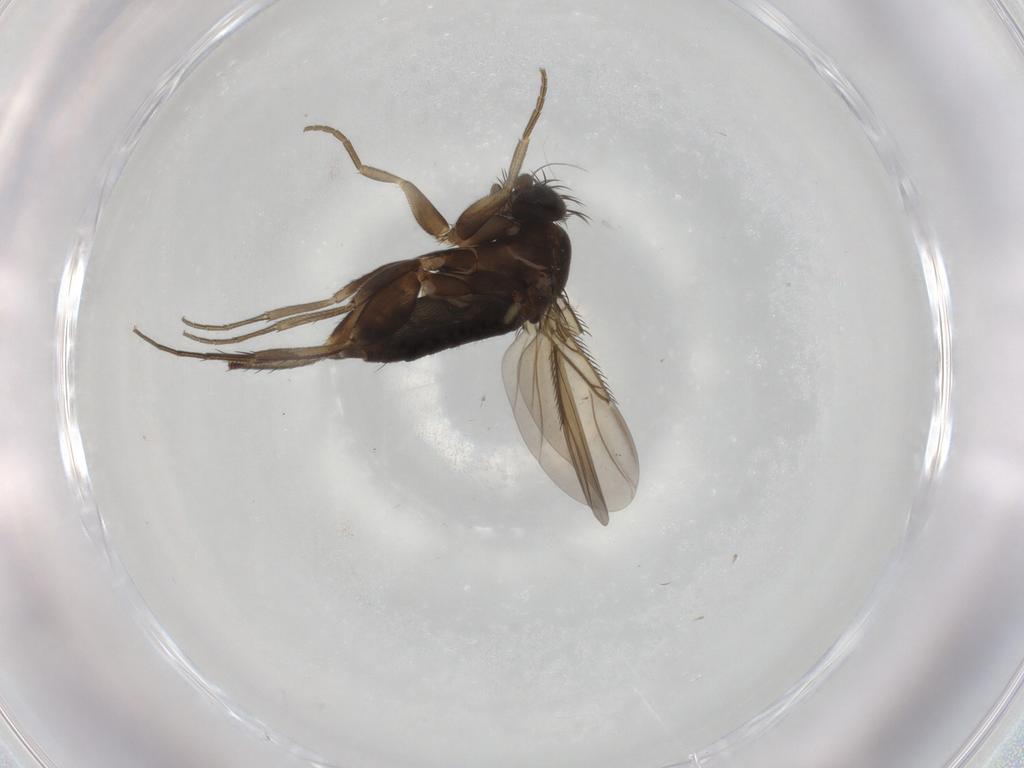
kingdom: Animalia
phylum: Arthropoda
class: Insecta
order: Diptera
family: Phoridae
